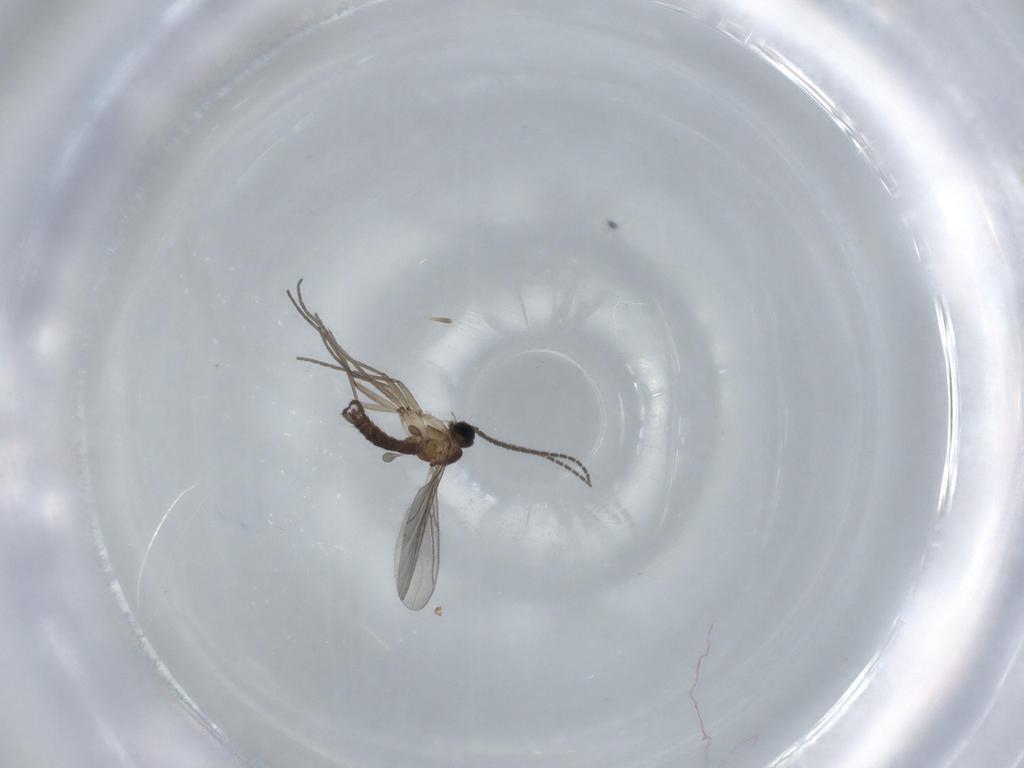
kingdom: Animalia
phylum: Arthropoda
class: Insecta
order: Diptera
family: Sciaridae
